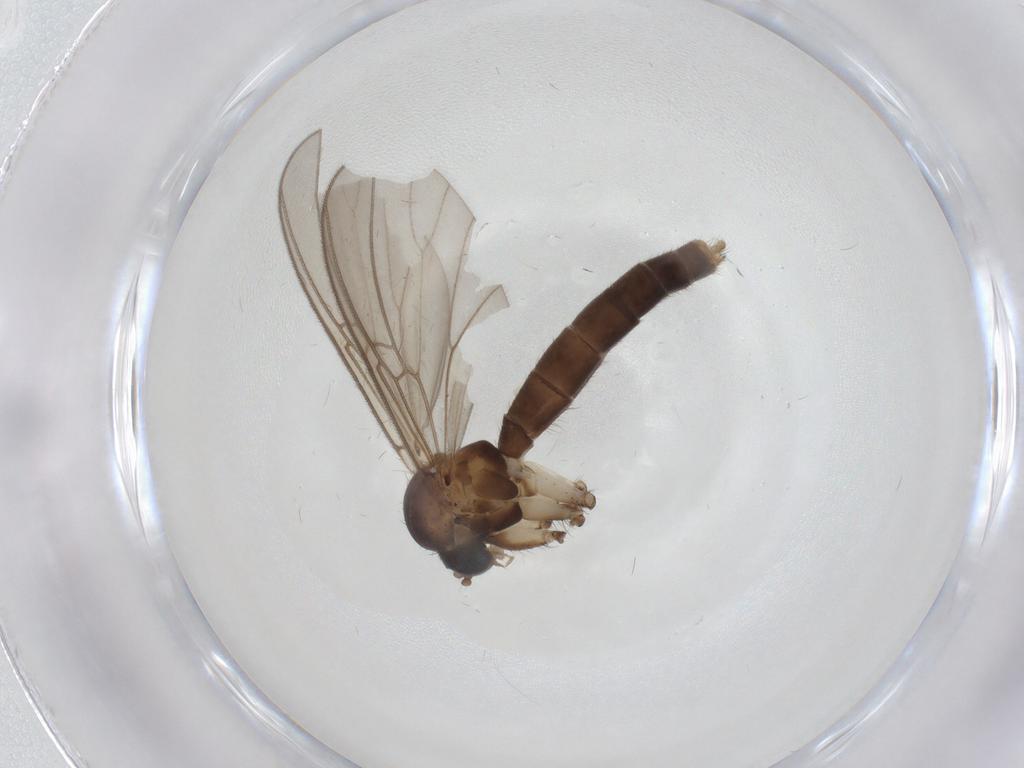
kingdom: Animalia
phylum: Arthropoda
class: Insecta
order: Diptera
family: Mycetophilidae
